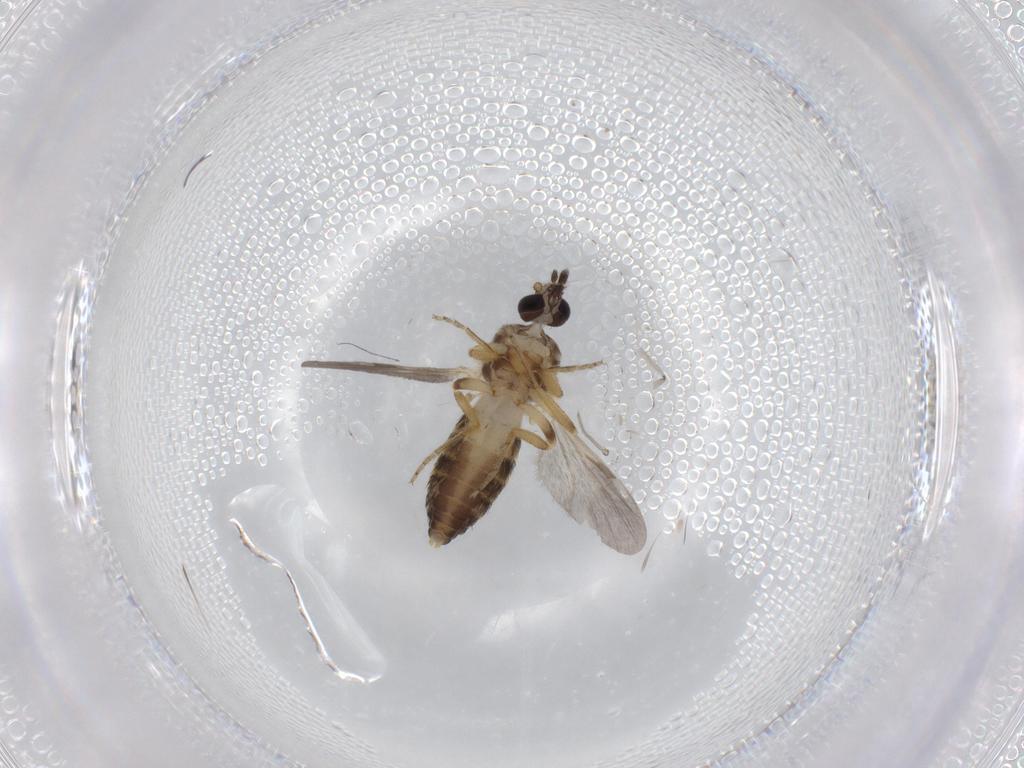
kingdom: Animalia
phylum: Arthropoda
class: Insecta
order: Diptera
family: Ceratopogonidae
